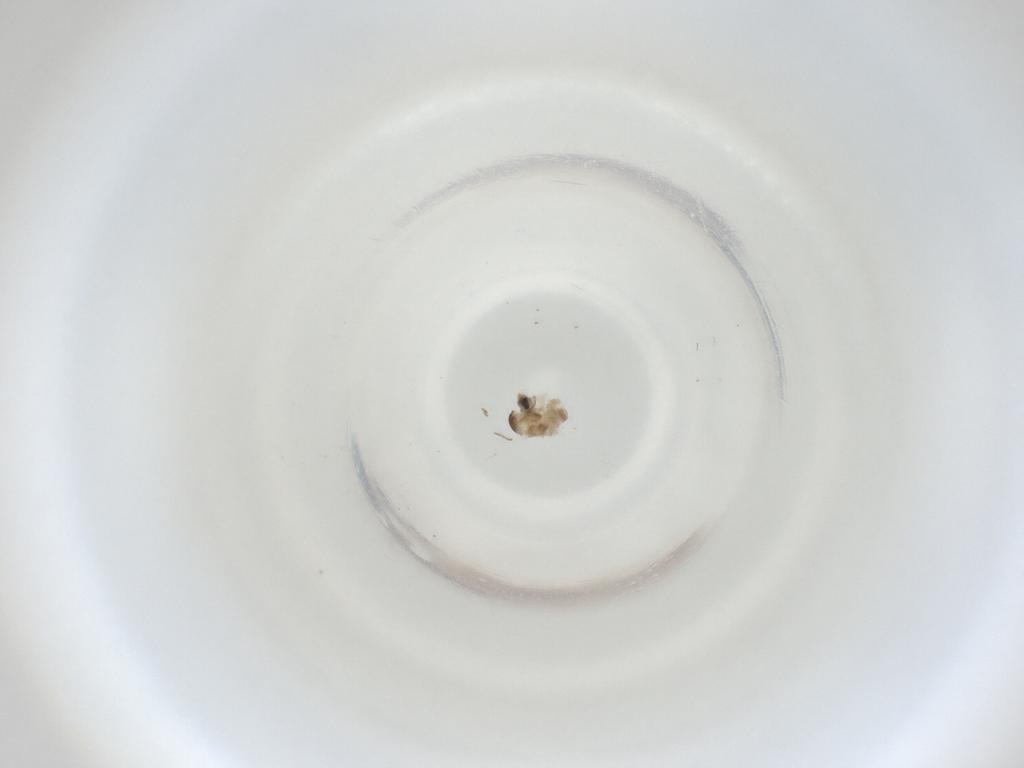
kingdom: Animalia
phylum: Arthropoda
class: Insecta
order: Diptera
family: Cecidomyiidae
